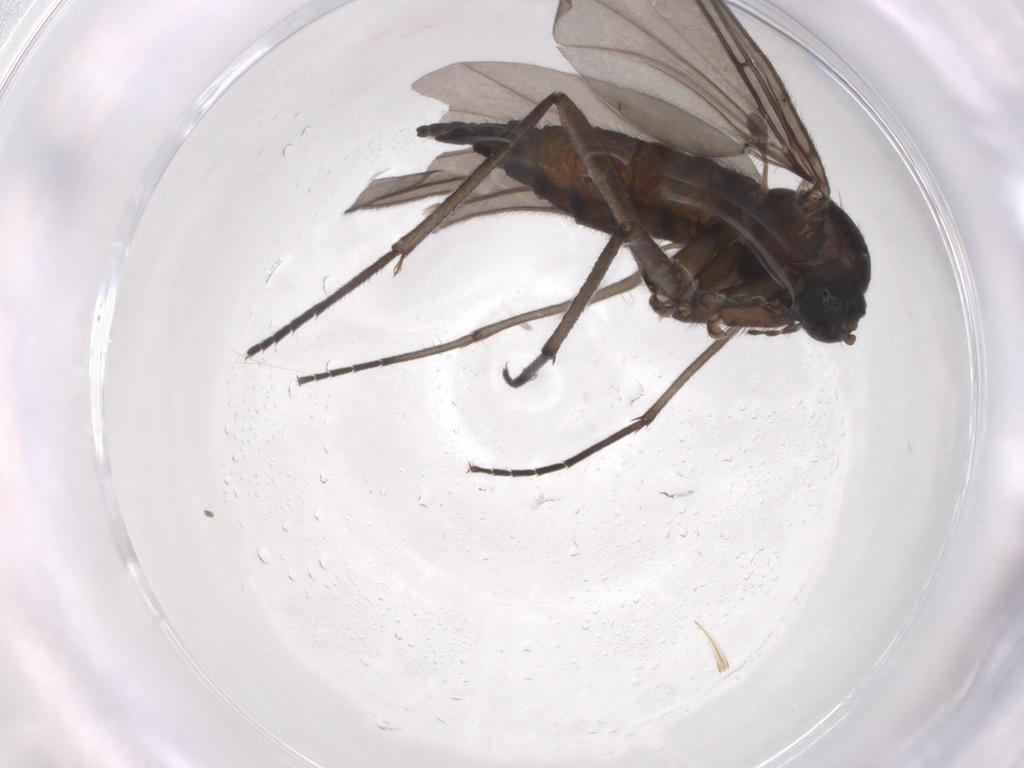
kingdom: Animalia
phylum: Arthropoda
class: Insecta
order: Diptera
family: Sciaridae
